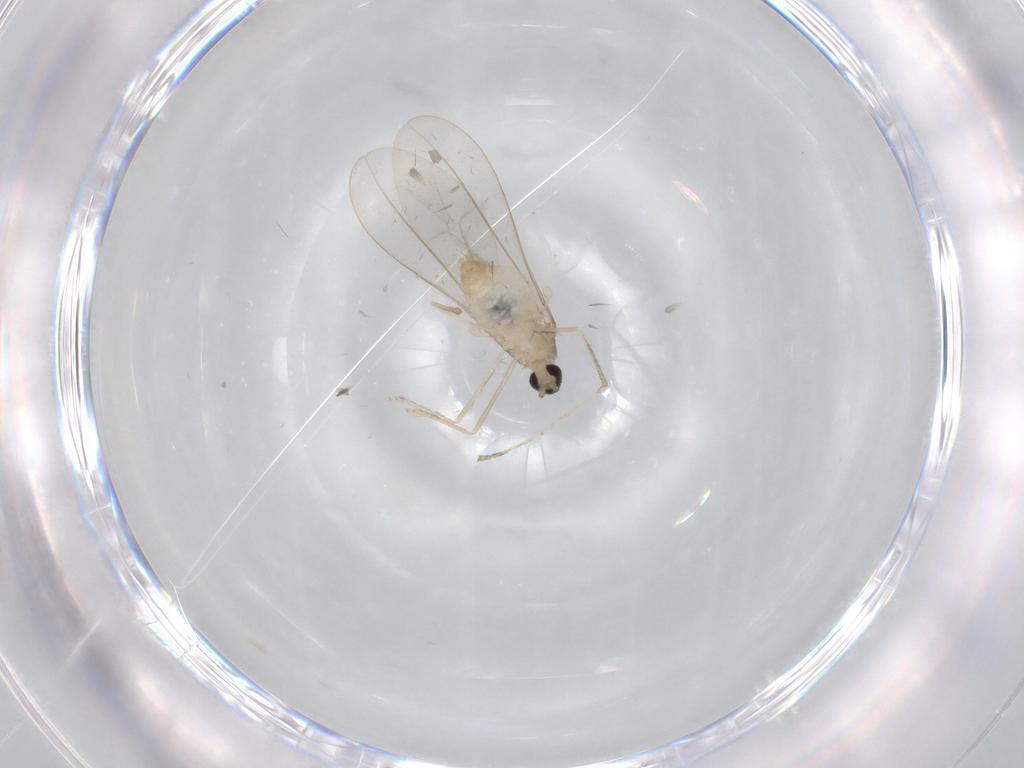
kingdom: Animalia
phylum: Arthropoda
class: Insecta
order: Diptera
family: Cecidomyiidae
